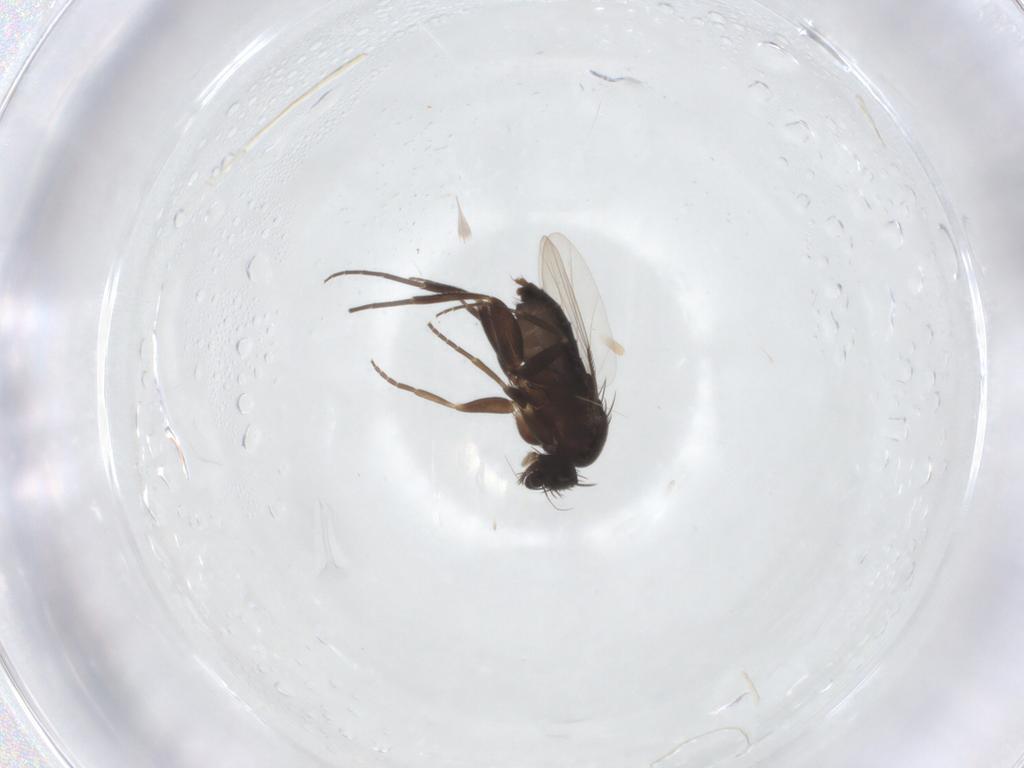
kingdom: Animalia
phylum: Arthropoda
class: Insecta
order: Diptera
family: Phoridae
